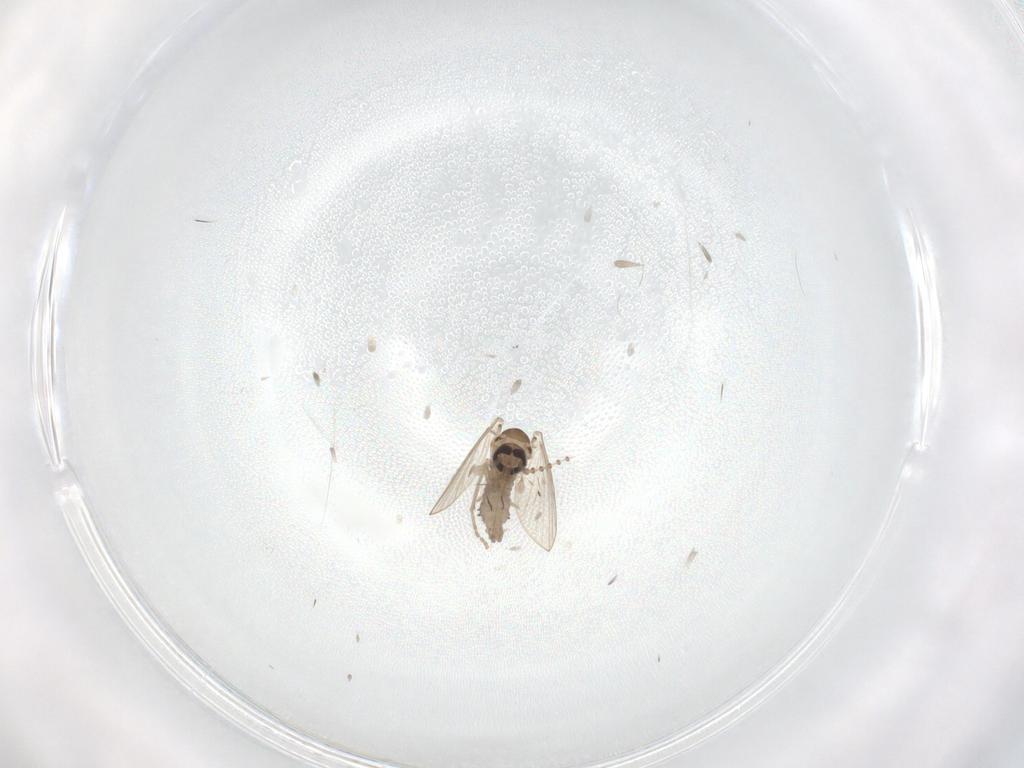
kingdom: Animalia
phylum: Arthropoda
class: Insecta
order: Diptera
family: Psychodidae
